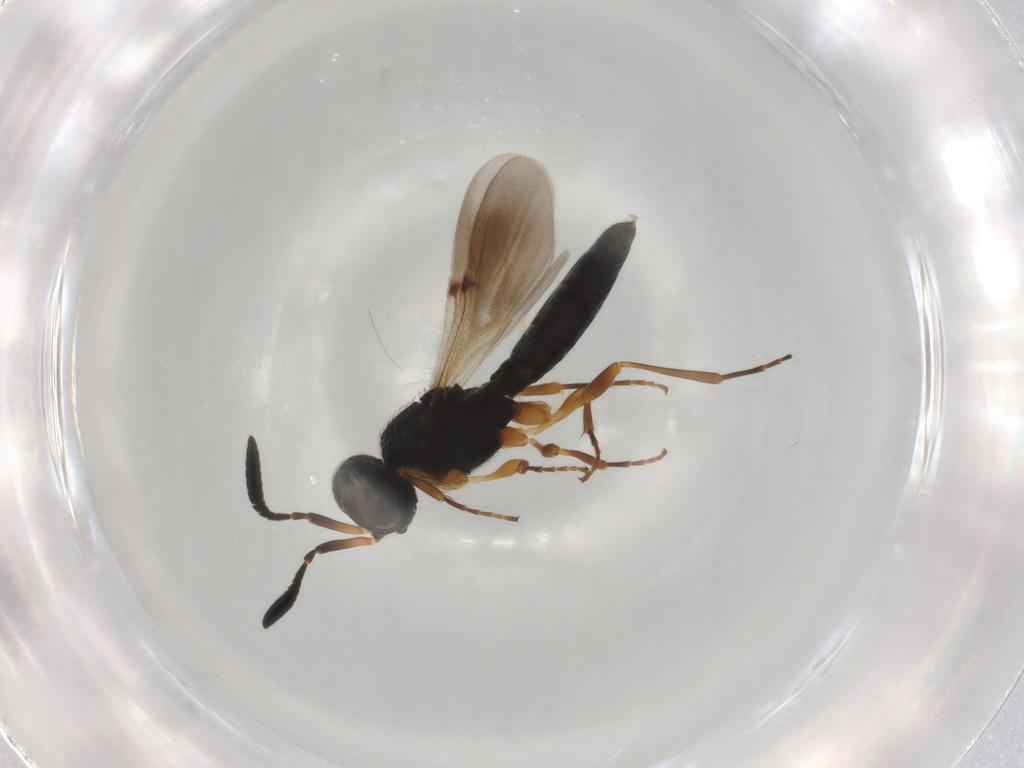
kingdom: Animalia
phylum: Arthropoda
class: Insecta
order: Hymenoptera
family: Scelionidae
